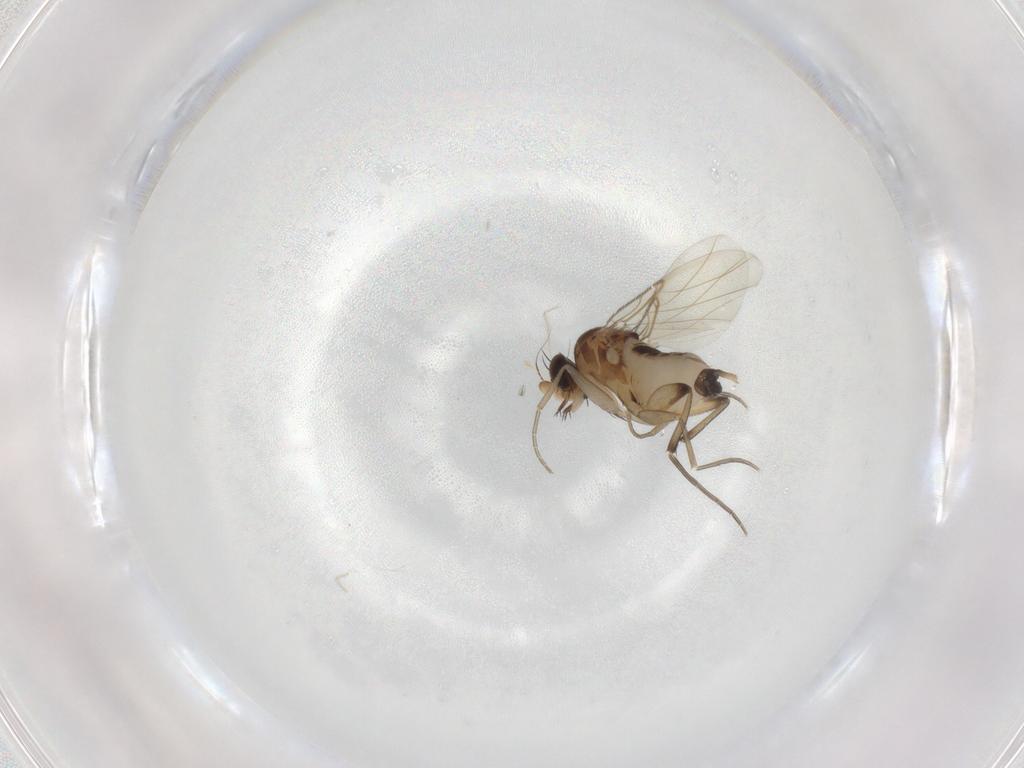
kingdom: Animalia
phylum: Arthropoda
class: Insecta
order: Diptera
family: Phoridae
